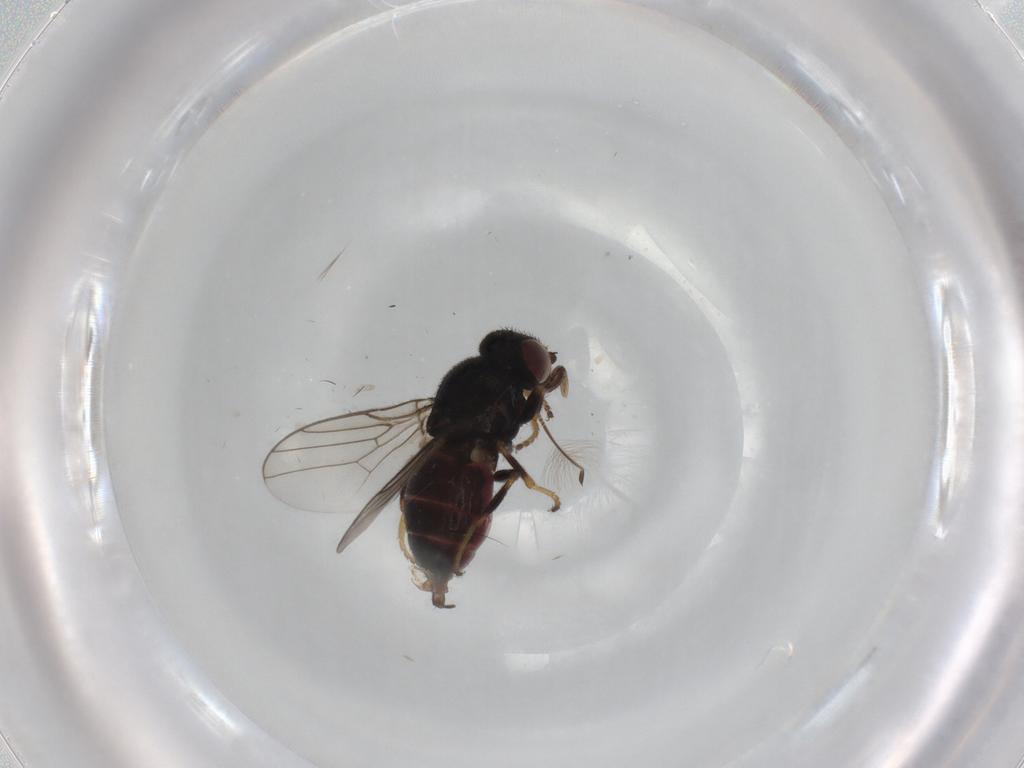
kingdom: Animalia
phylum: Arthropoda
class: Insecta
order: Diptera
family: Chloropidae
